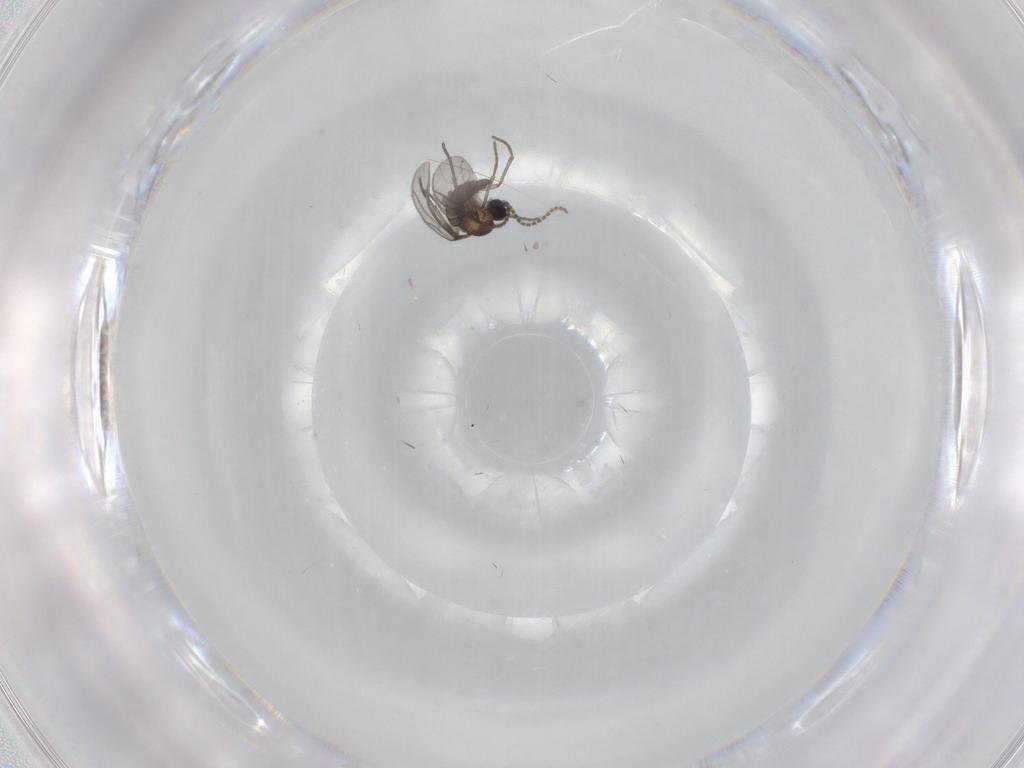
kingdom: Animalia
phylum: Arthropoda
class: Insecta
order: Diptera
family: Sciaridae
